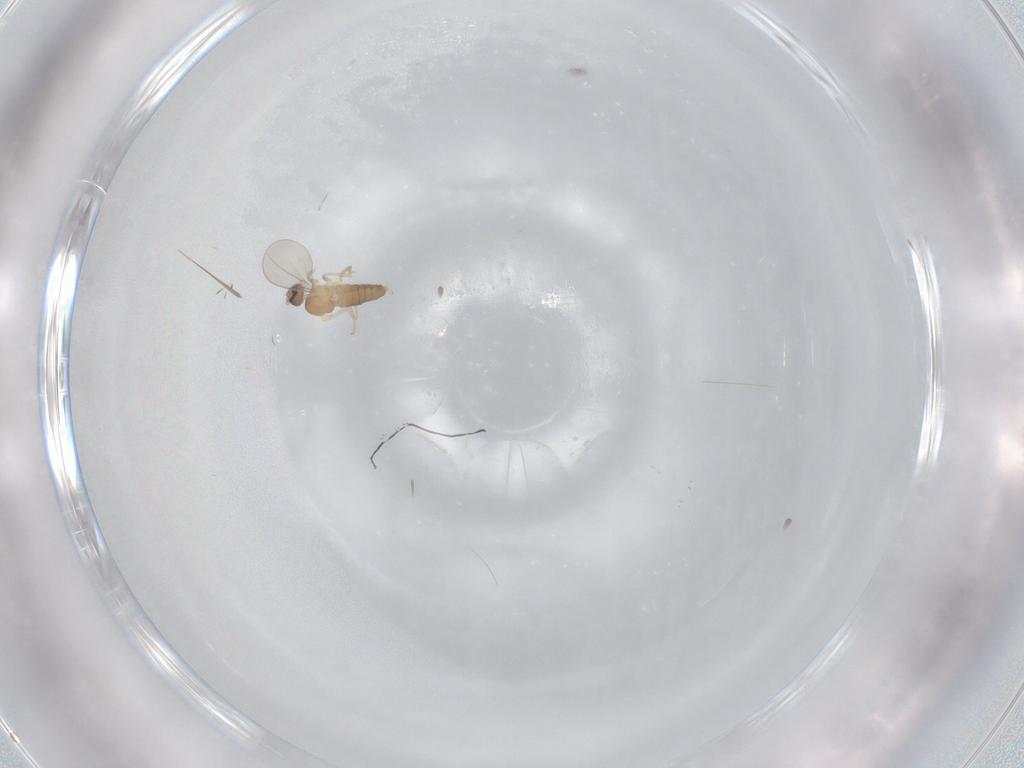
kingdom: Animalia
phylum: Arthropoda
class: Insecta
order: Diptera
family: Cecidomyiidae
